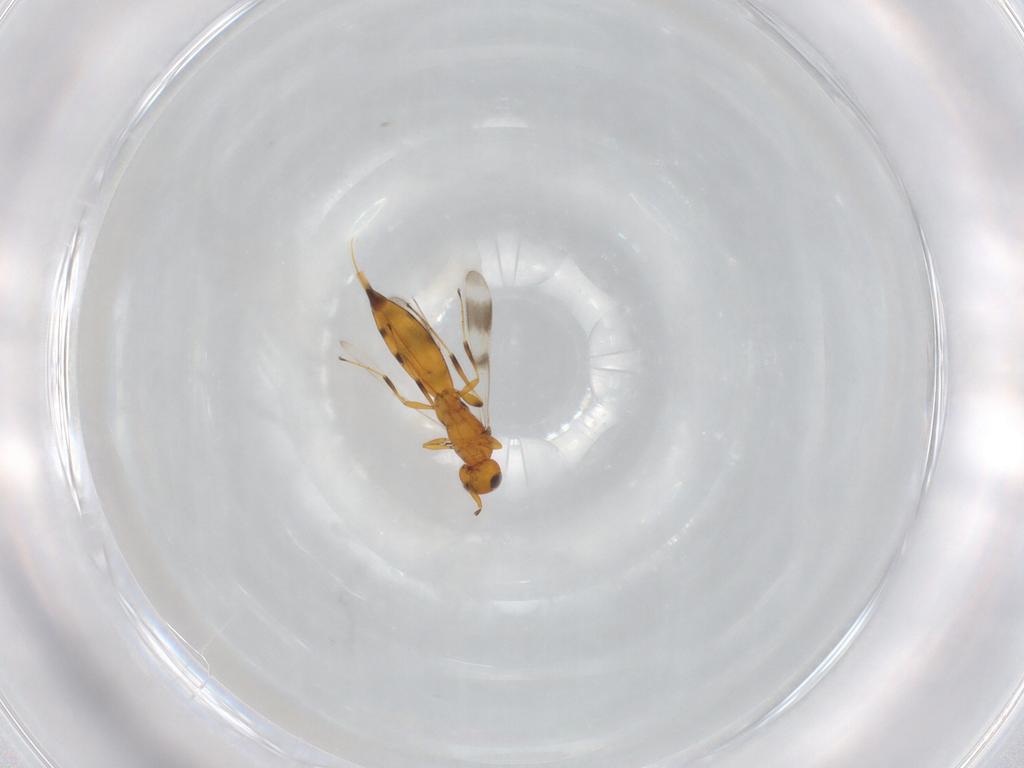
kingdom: Animalia
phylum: Arthropoda
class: Insecta
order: Hymenoptera
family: Scelionidae
